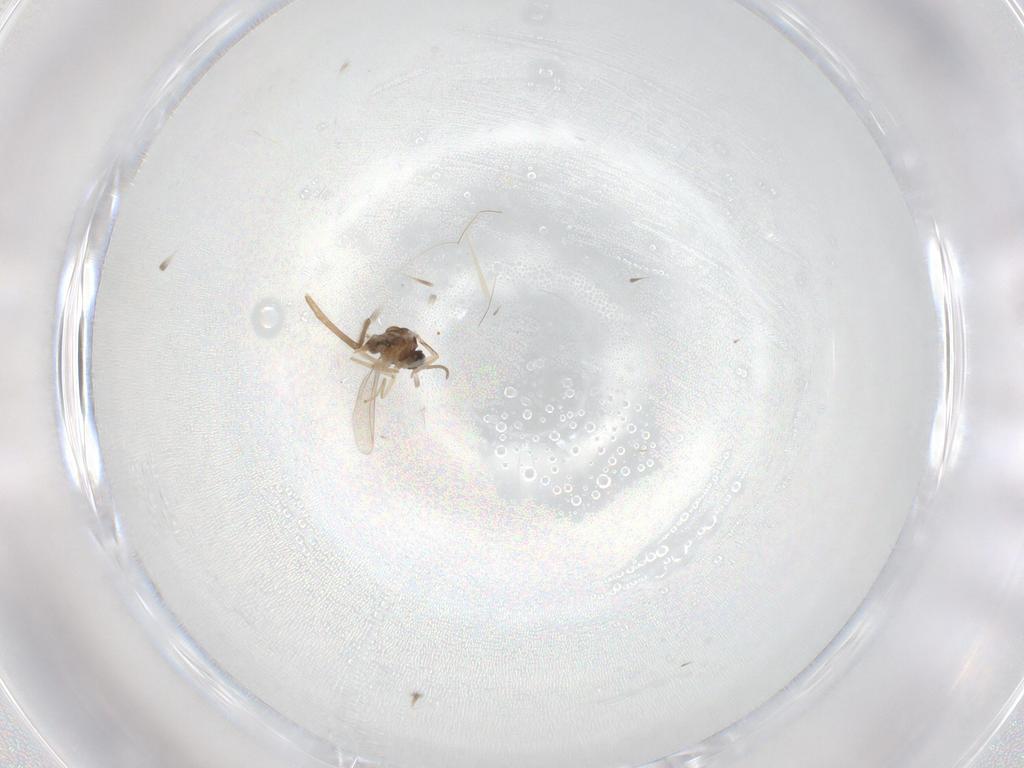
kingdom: Animalia
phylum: Arthropoda
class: Insecta
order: Diptera
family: Cecidomyiidae
